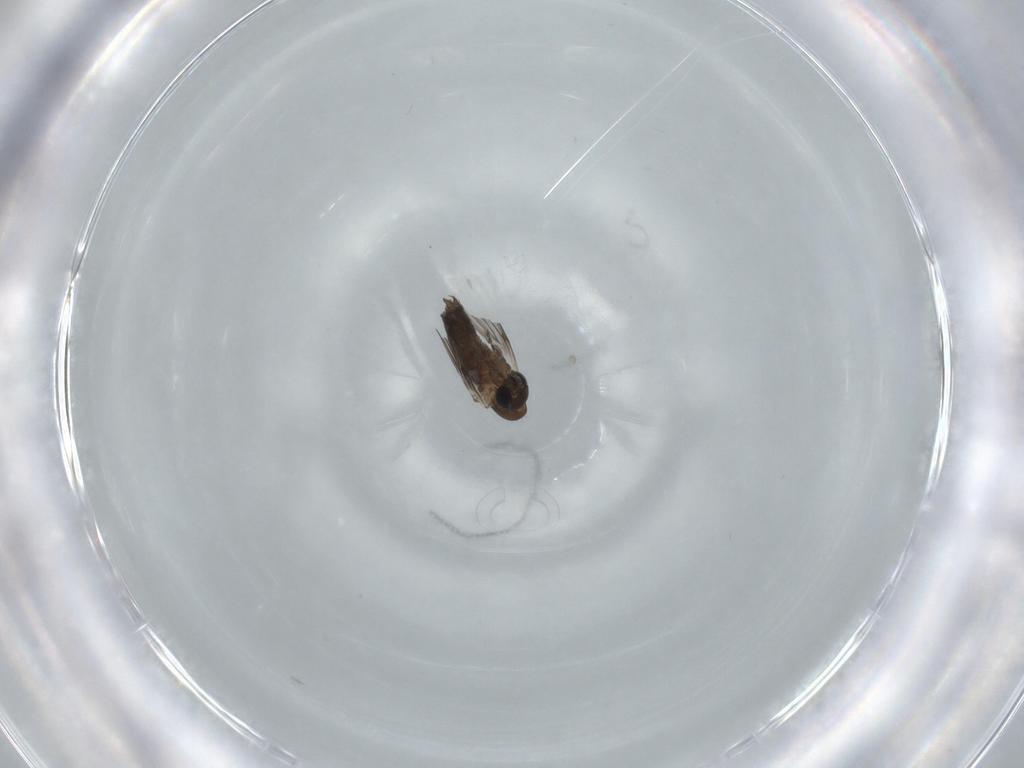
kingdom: Animalia
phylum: Arthropoda
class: Insecta
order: Diptera
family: Sciaridae
